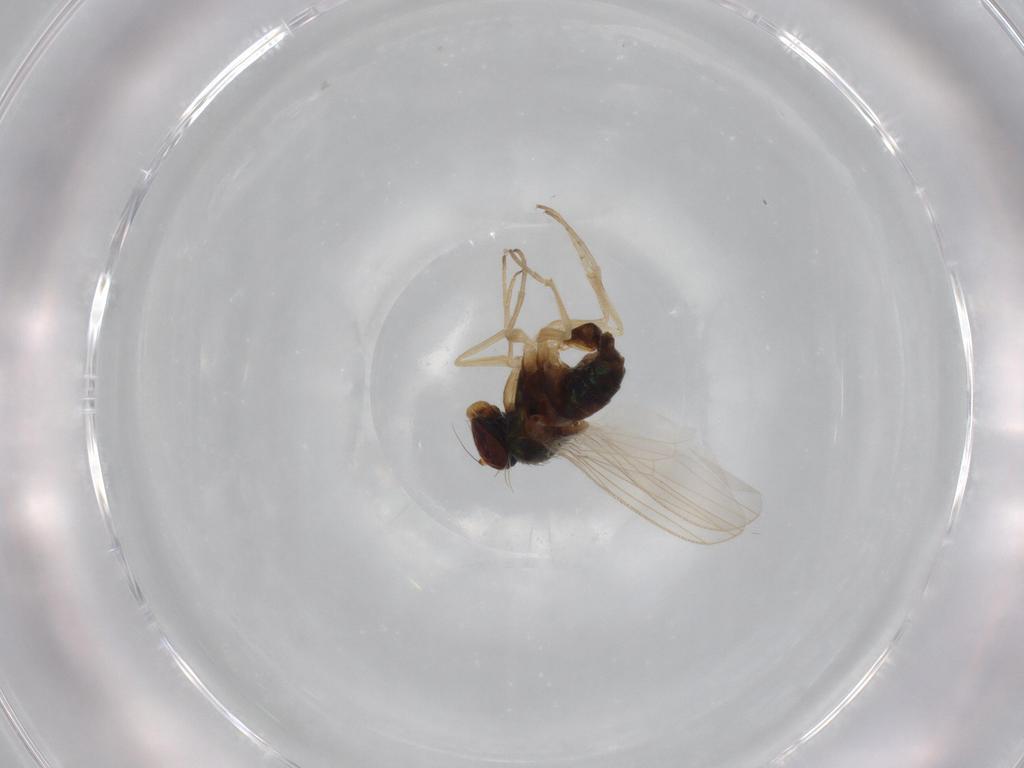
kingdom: Animalia
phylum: Arthropoda
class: Insecta
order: Diptera
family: Dolichopodidae
